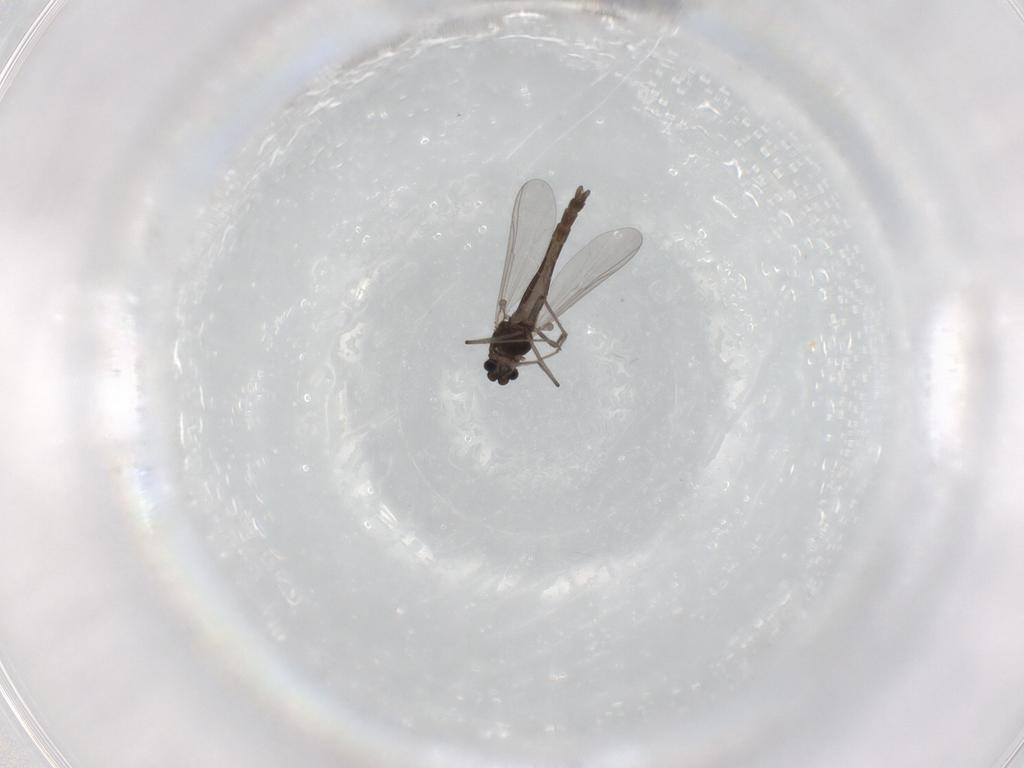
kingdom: Animalia
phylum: Arthropoda
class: Insecta
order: Diptera
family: Chironomidae
